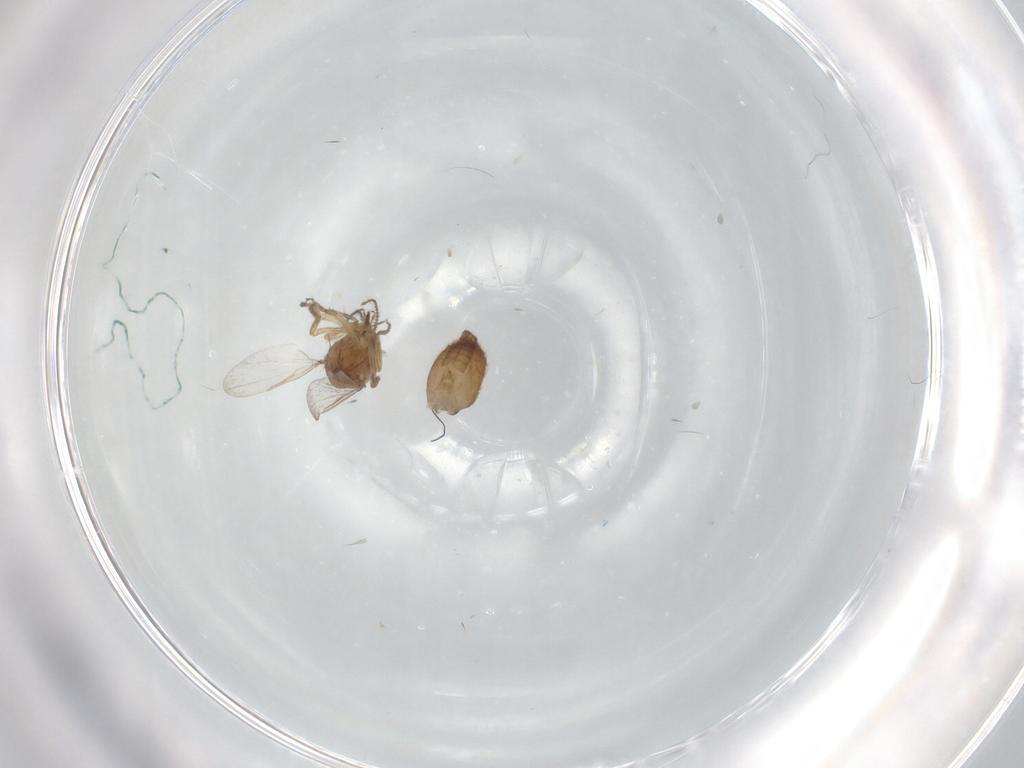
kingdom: Animalia
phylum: Arthropoda
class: Insecta
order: Diptera
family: Ceratopogonidae
